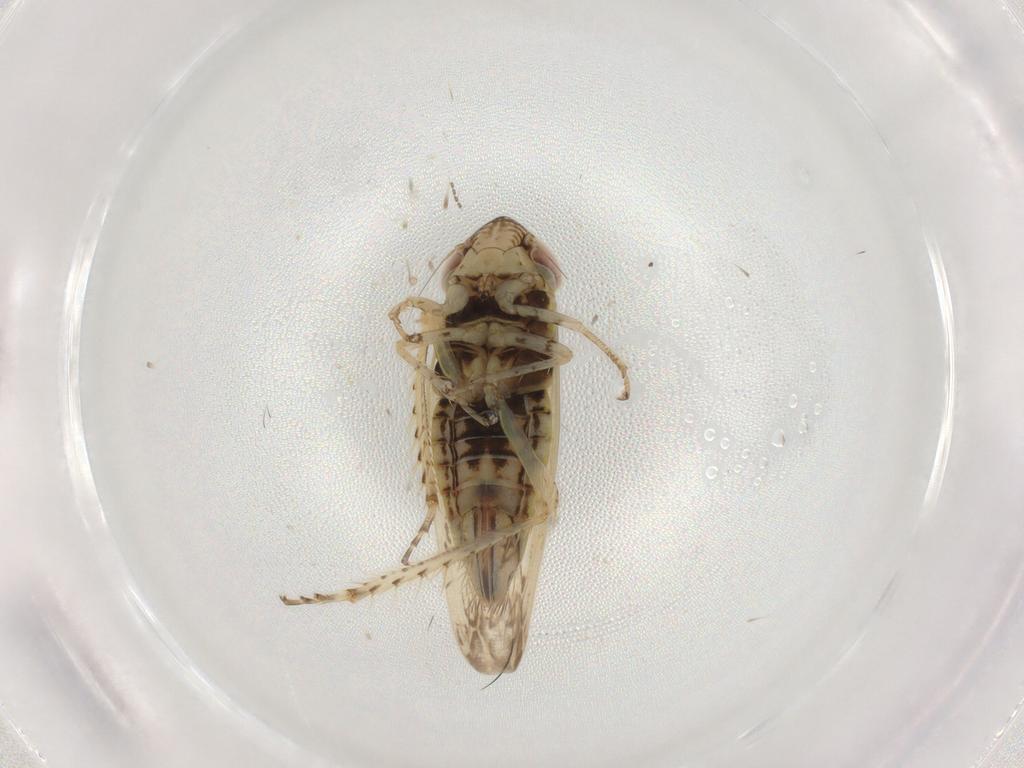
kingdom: Animalia
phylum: Arthropoda
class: Insecta
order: Hemiptera
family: Cicadellidae
